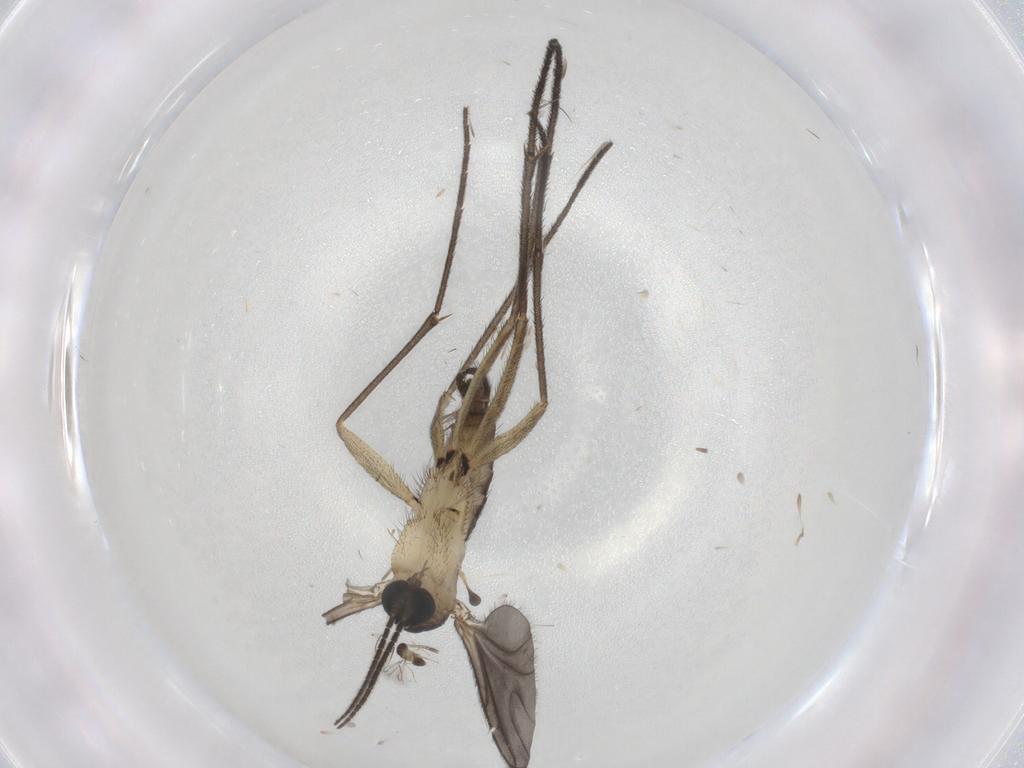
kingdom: Animalia
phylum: Arthropoda
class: Insecta
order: Diptera
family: Sciaridae
